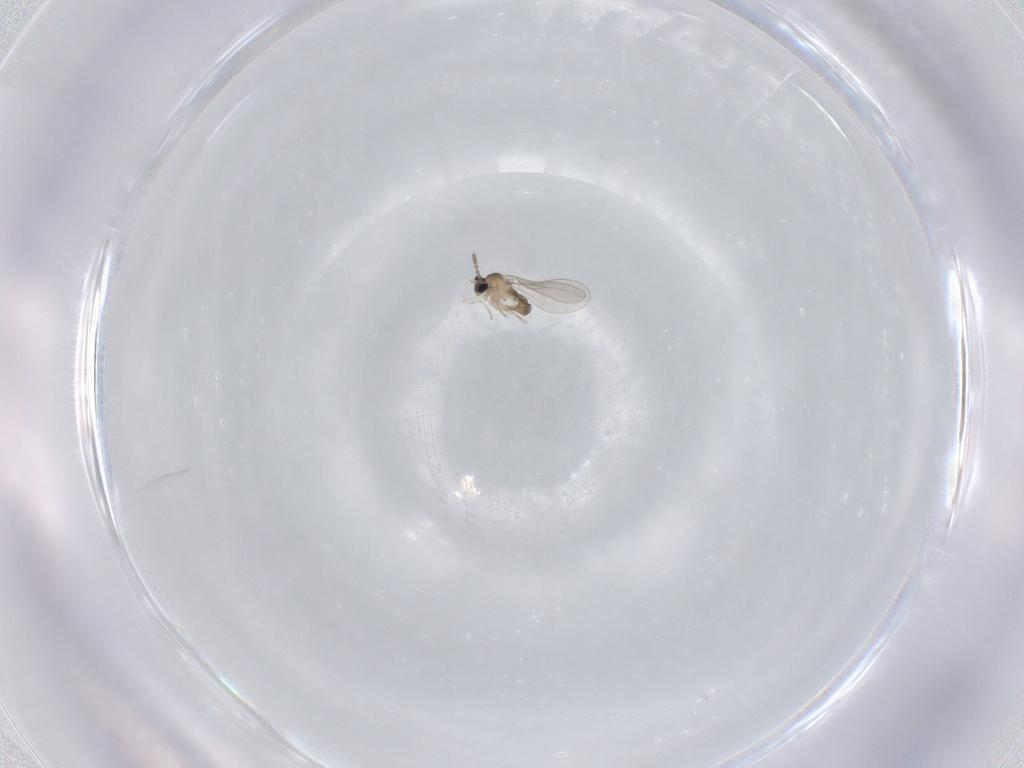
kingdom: Animalia
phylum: Arthropoda
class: Insecta
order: Diptera
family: Cecidomyiidae
